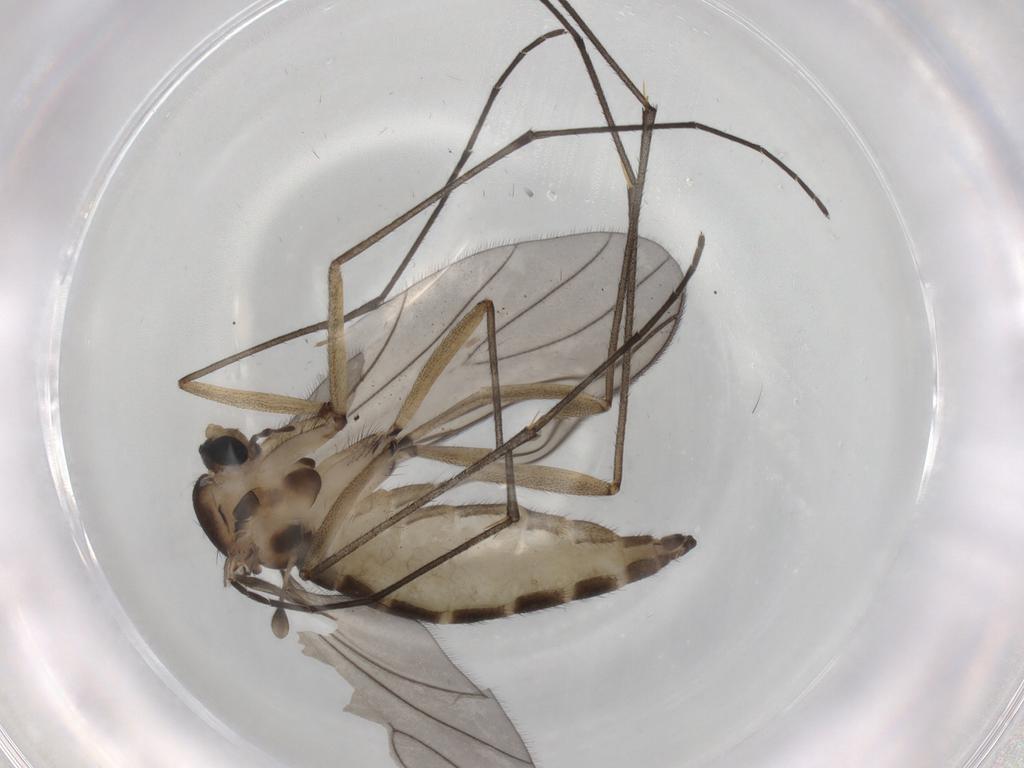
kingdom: Animalia
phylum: Arthropoda
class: Insecta
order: Diptera
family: Sciaridae
